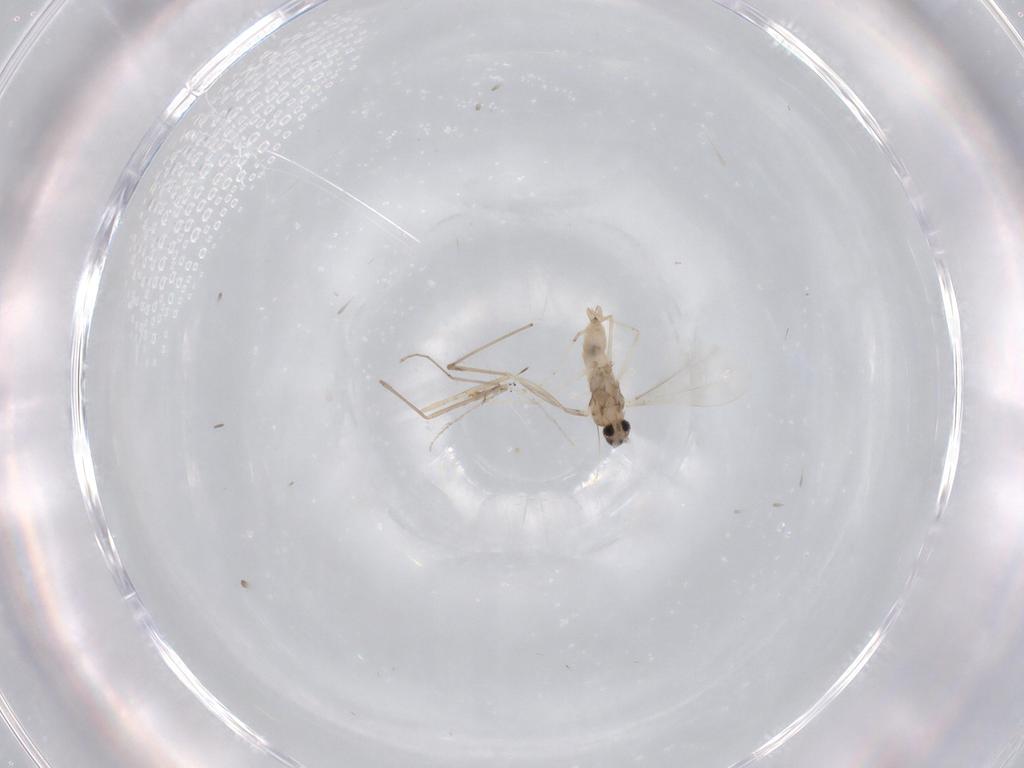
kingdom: Animalia
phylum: Arthropoda
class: Insecta
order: Diptera
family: Cecidomyiidae
